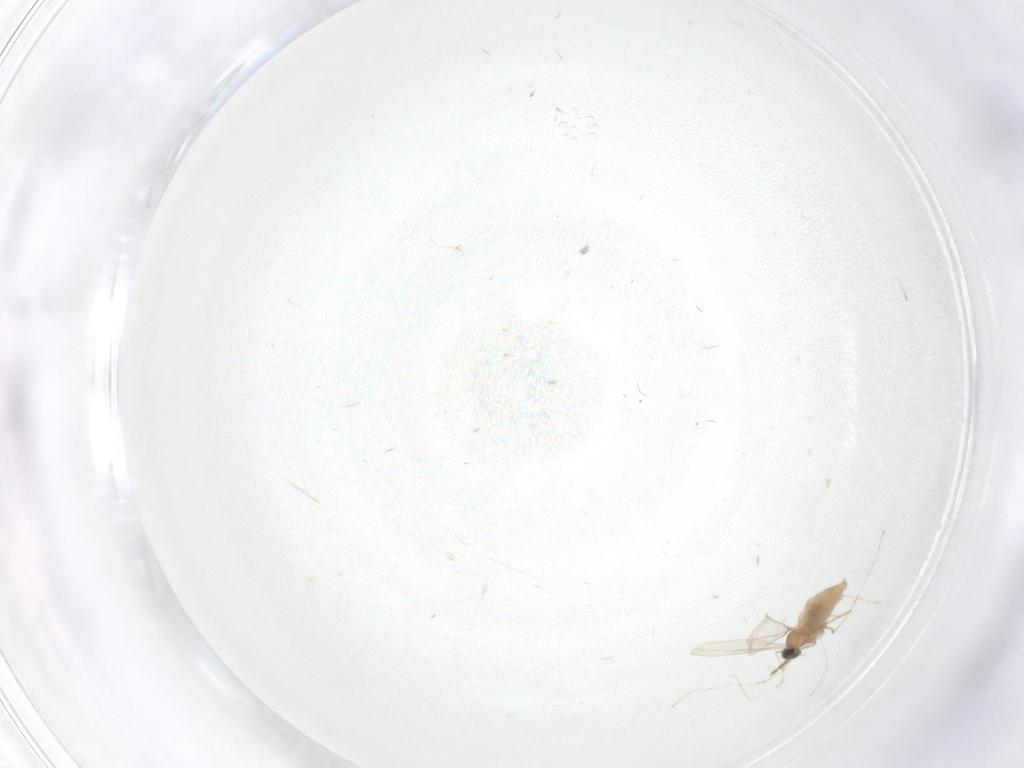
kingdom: Animalia
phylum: Arthropoda
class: Insecta
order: Diptera
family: Cecidomyiidae
